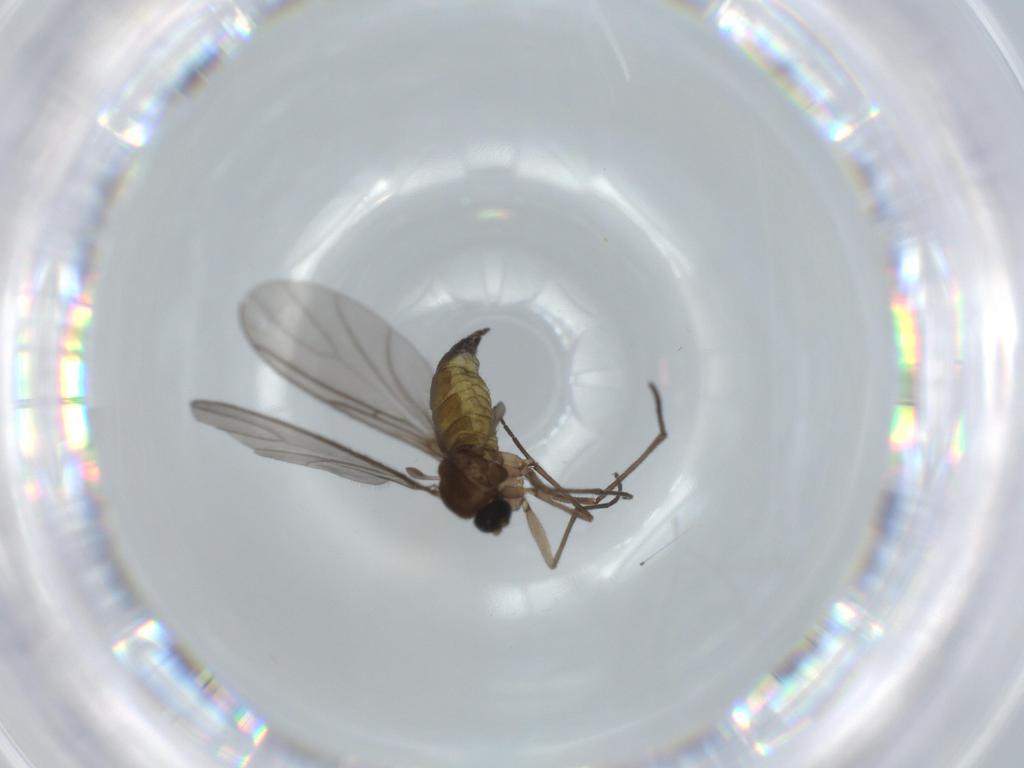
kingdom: Animalia
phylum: Arthropoda
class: Insecta
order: Diptera
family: Sciaridae
